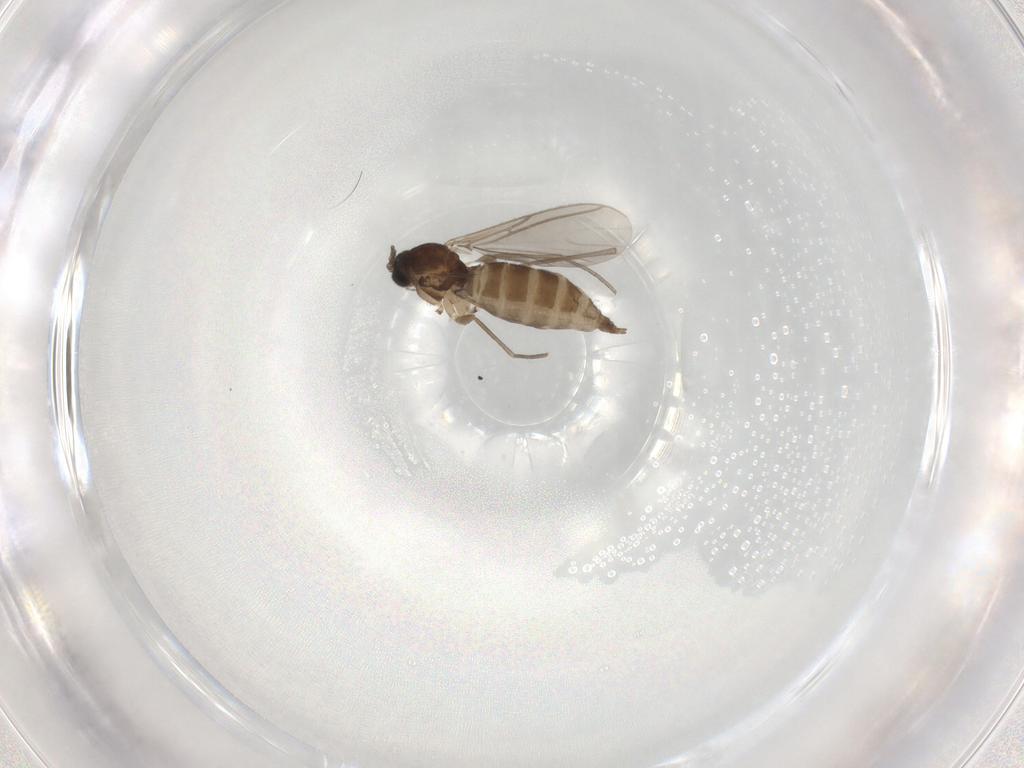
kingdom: Animalia
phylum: Arthropoda
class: Insecta
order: Diptera
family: Sciaridae
